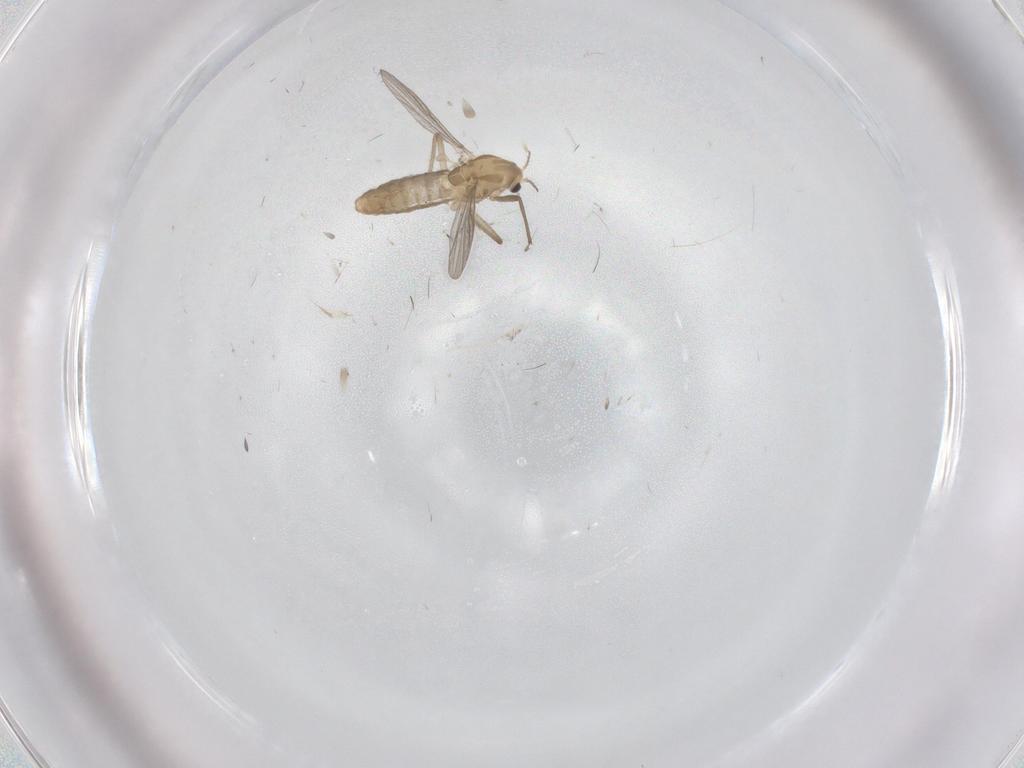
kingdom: Animalia
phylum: Arthropoda
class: Insecta
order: Diptera
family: Chironomidae
